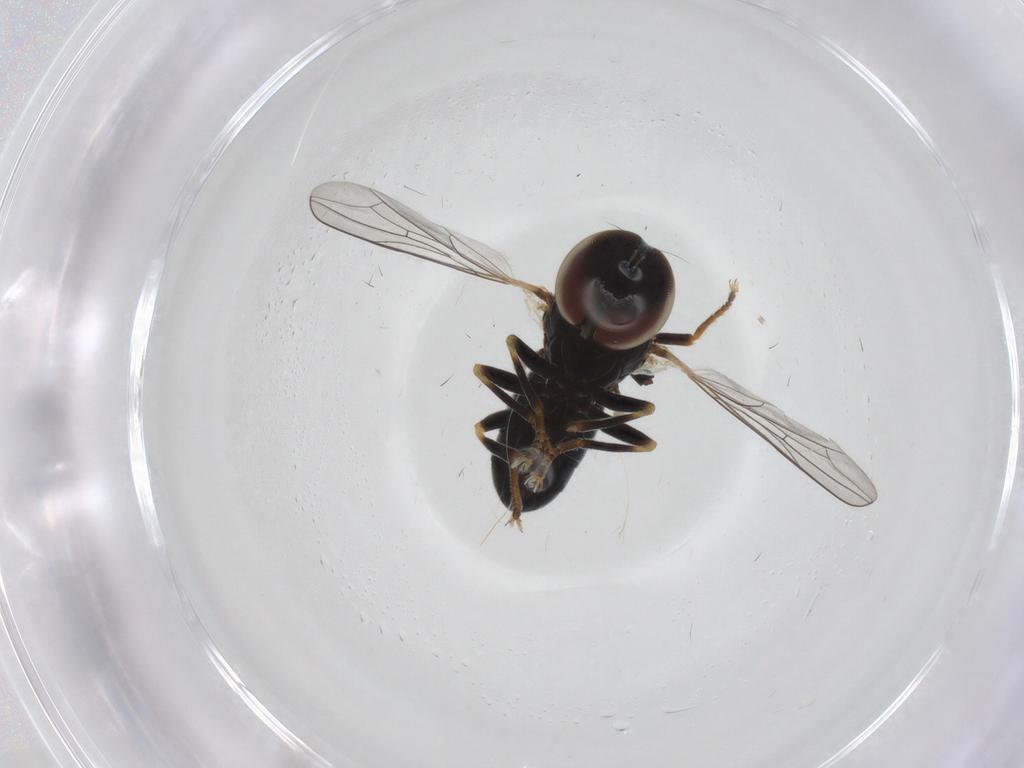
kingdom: Animalia
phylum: Arthropoda
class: Insecta
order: Diptera
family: Pipunculidae
